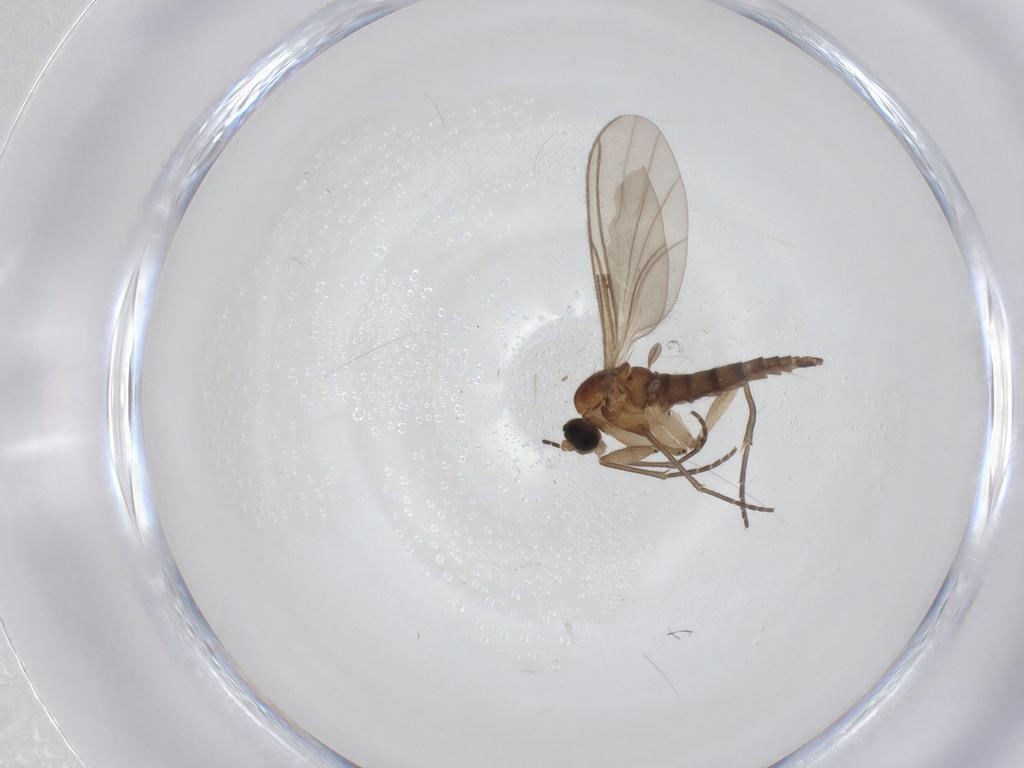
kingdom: Animalia
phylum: Arthropoda
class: Insecta
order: Diptera
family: Sciaridae
